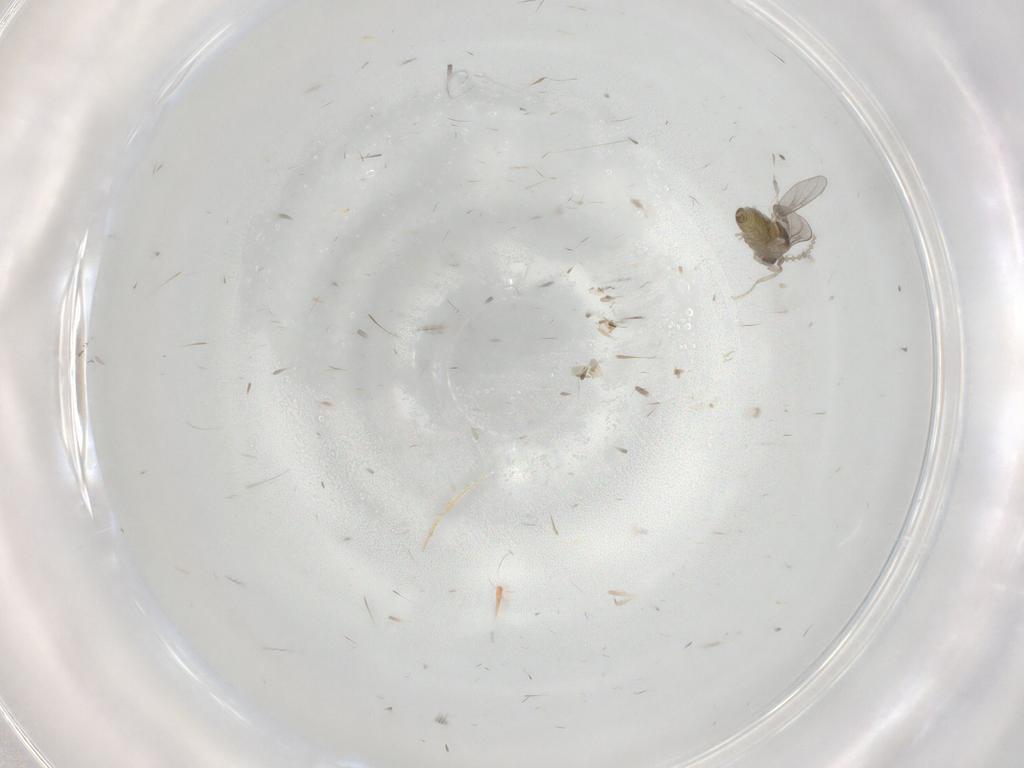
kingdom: Animalia
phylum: Arthropoda
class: Insecta
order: Diptera
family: Cecidomyiidae
